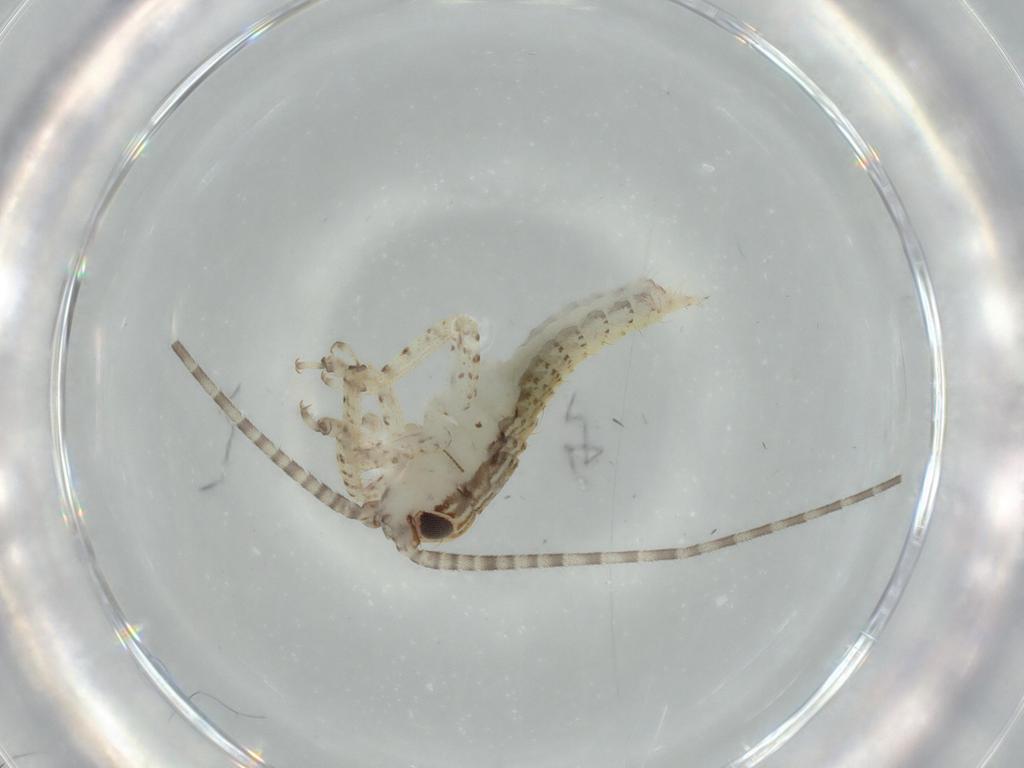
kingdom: Animalia
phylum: Arthropoda
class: Insecta
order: Orthoptera
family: Gryllidae
